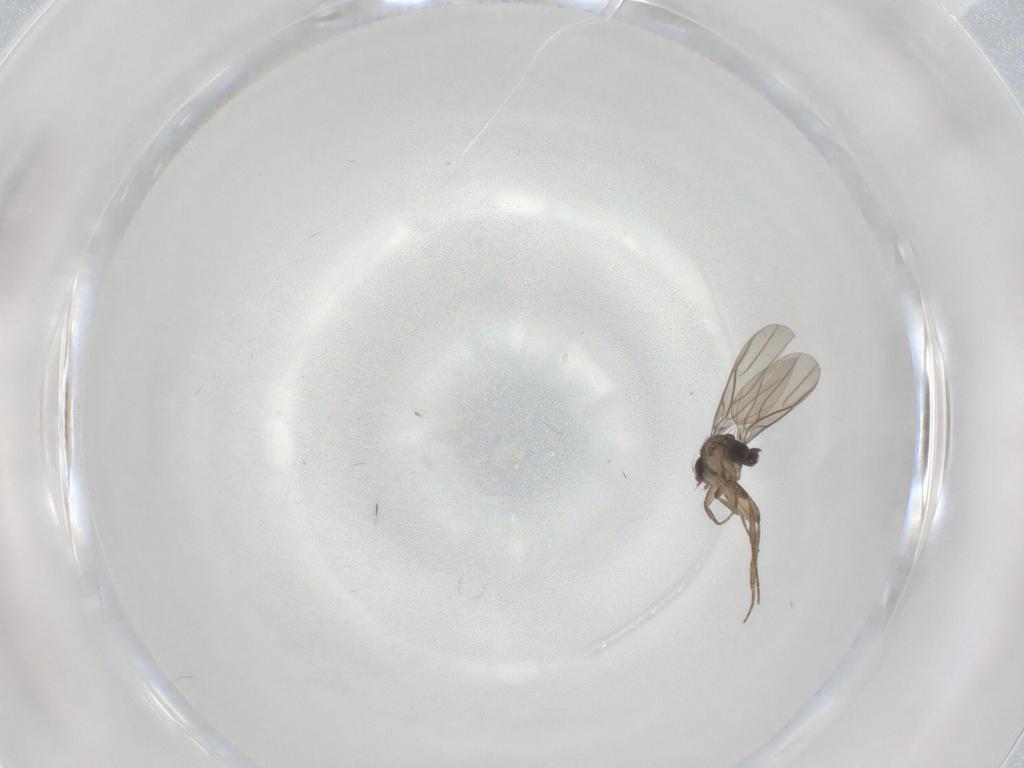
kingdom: Animalia
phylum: Arthropoda
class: Insecta
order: Diptera
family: Phoridae
